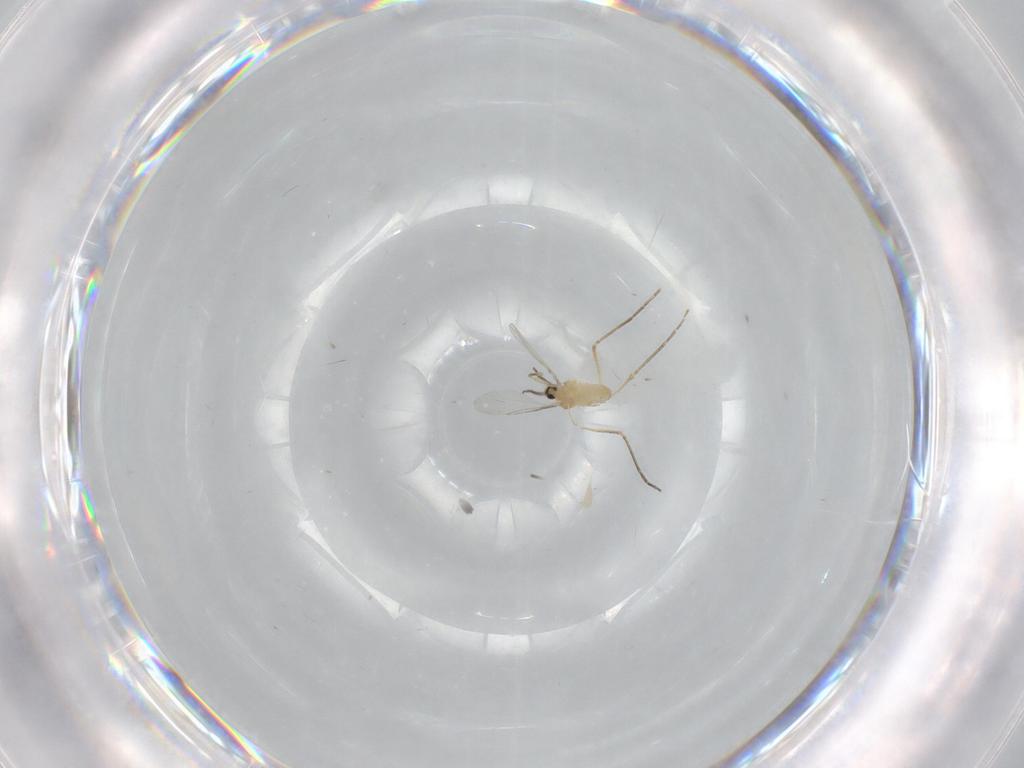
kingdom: Animalia
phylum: Arthropoda
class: Insecta
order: Diptera
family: Cecidomyiidae
